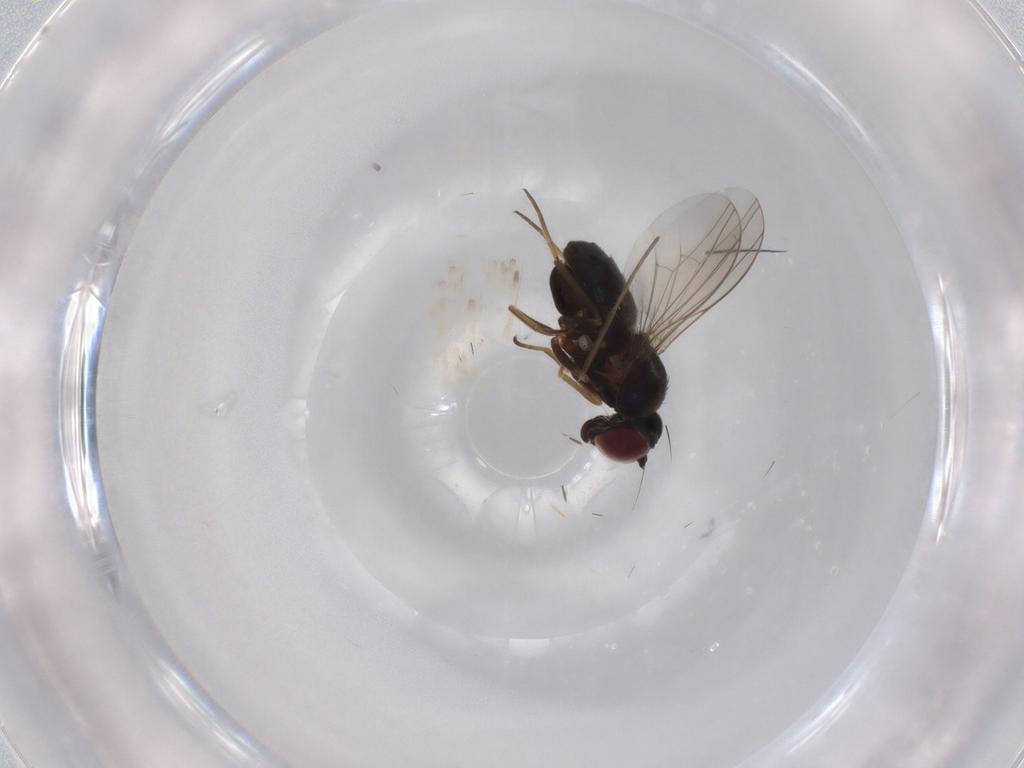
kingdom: Animalia
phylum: Arthropoda
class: Insecta
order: Diptera
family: Dolichopodidae
